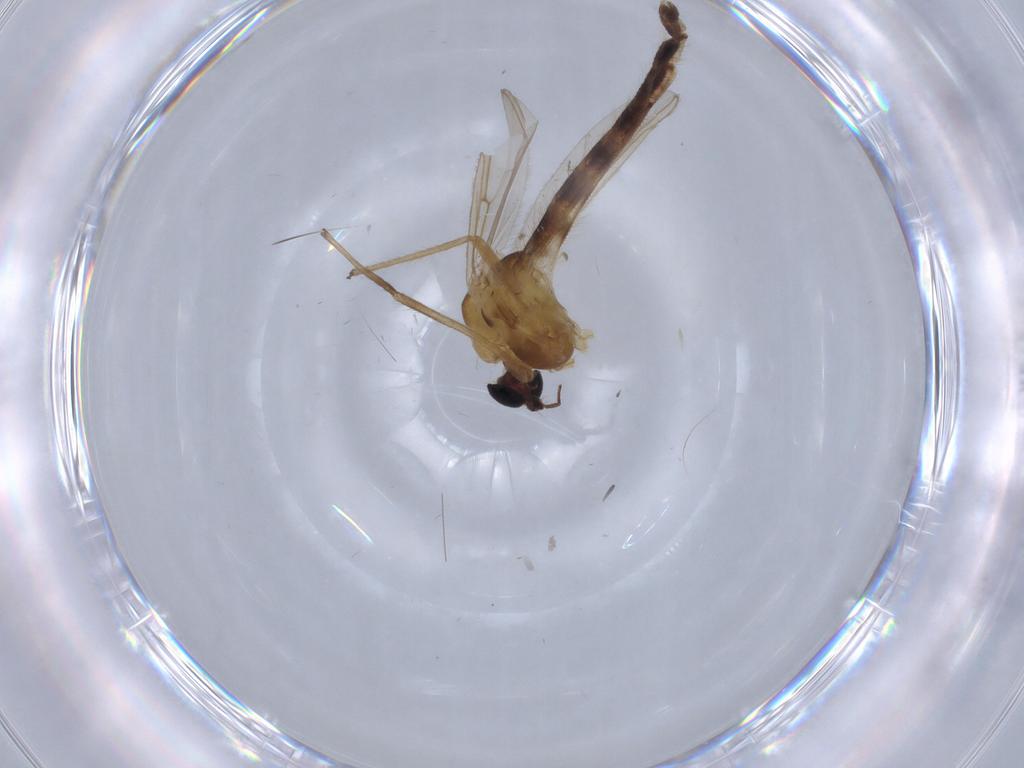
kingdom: Animalia
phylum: Arthropoda
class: Insecta
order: Diptera
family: Chironomidae
